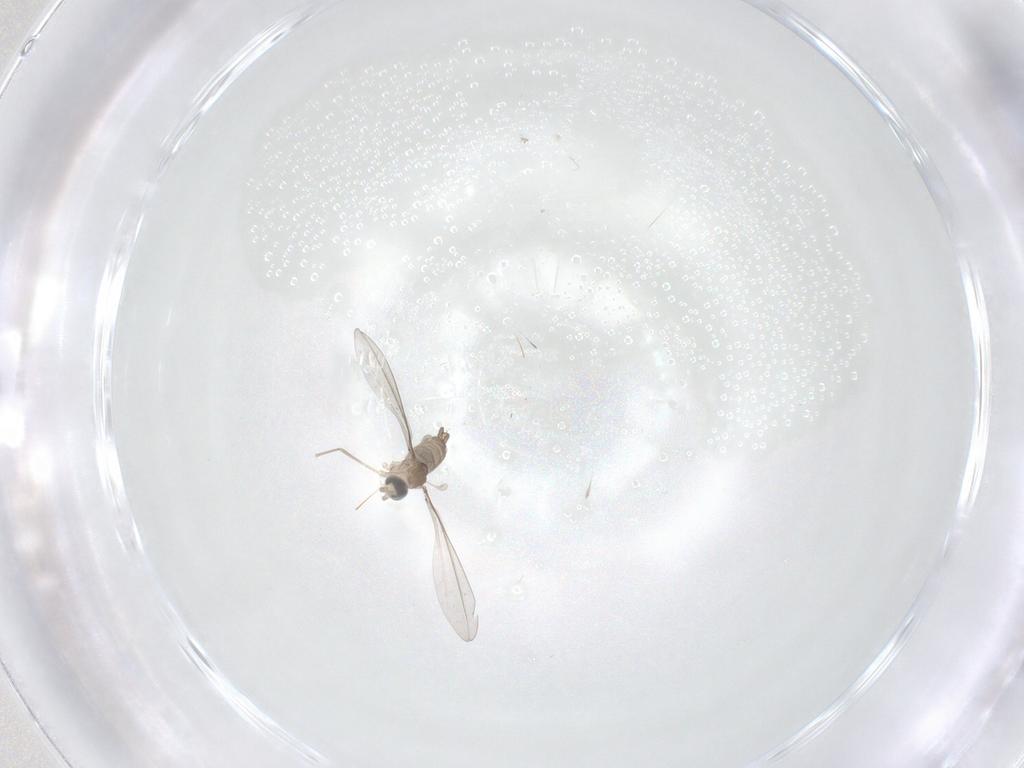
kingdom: Animalia
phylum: Arthropoda
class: Insecta
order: Diptera
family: Cecidomyiidae
